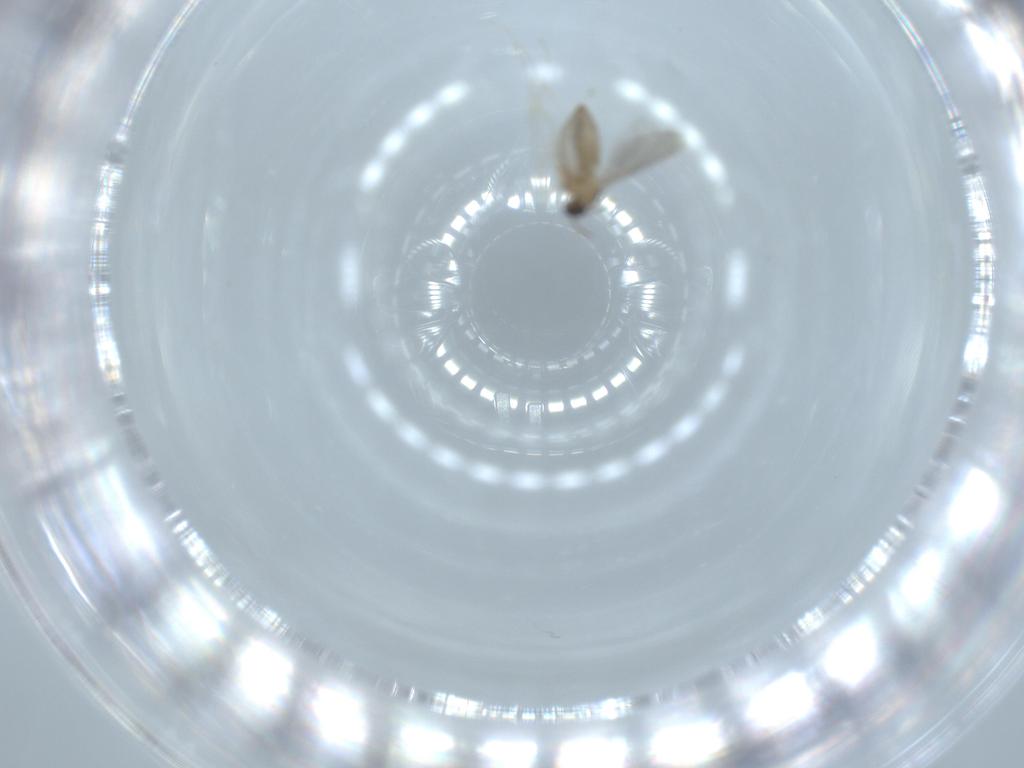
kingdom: Animalia
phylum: Arthropoda
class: Insecta
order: Diptera
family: Cecidomyiidae
